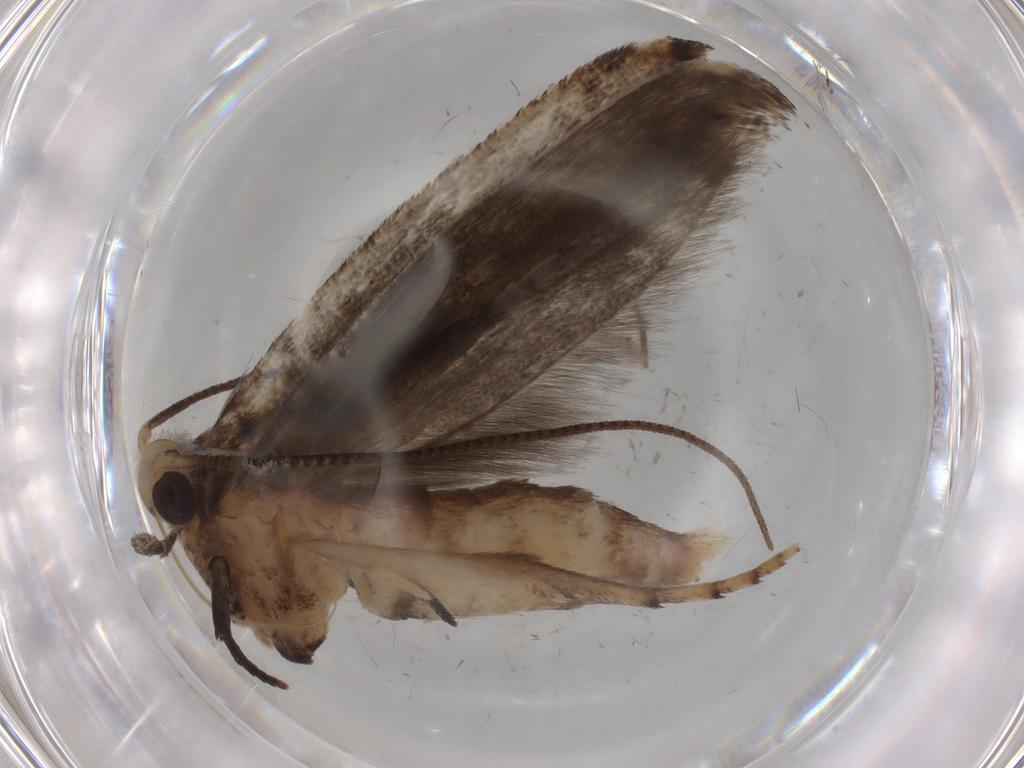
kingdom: Animalia
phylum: Arthropoda
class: Insecta
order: Lepidoptera
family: Yponomeutidae
